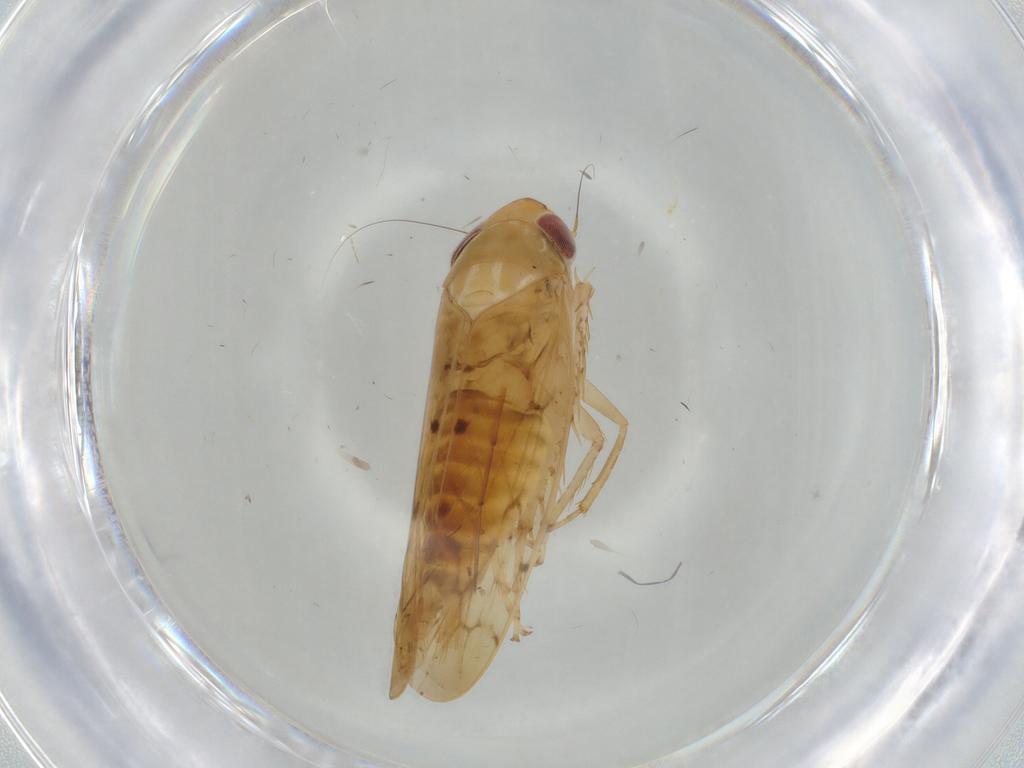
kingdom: Animalia
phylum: Arthropoda
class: Insecta
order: Hemiptera
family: Cicadellidae
